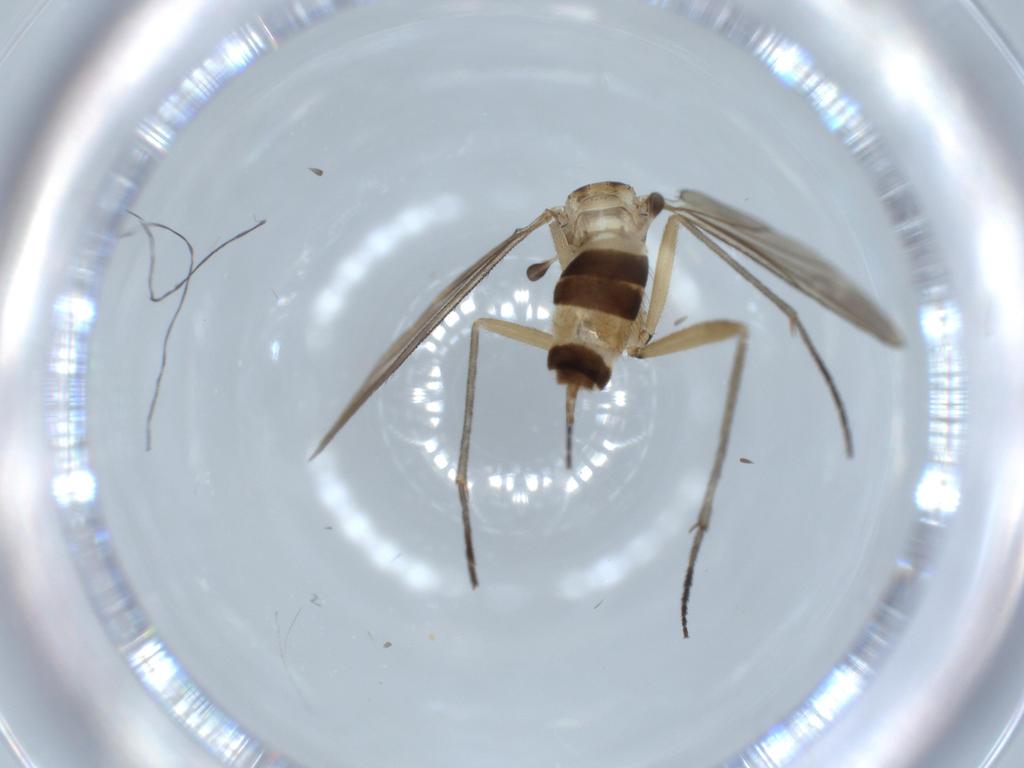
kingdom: Animalia
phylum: Arthropoda
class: Insecta
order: Diptera
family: Sciaridae
